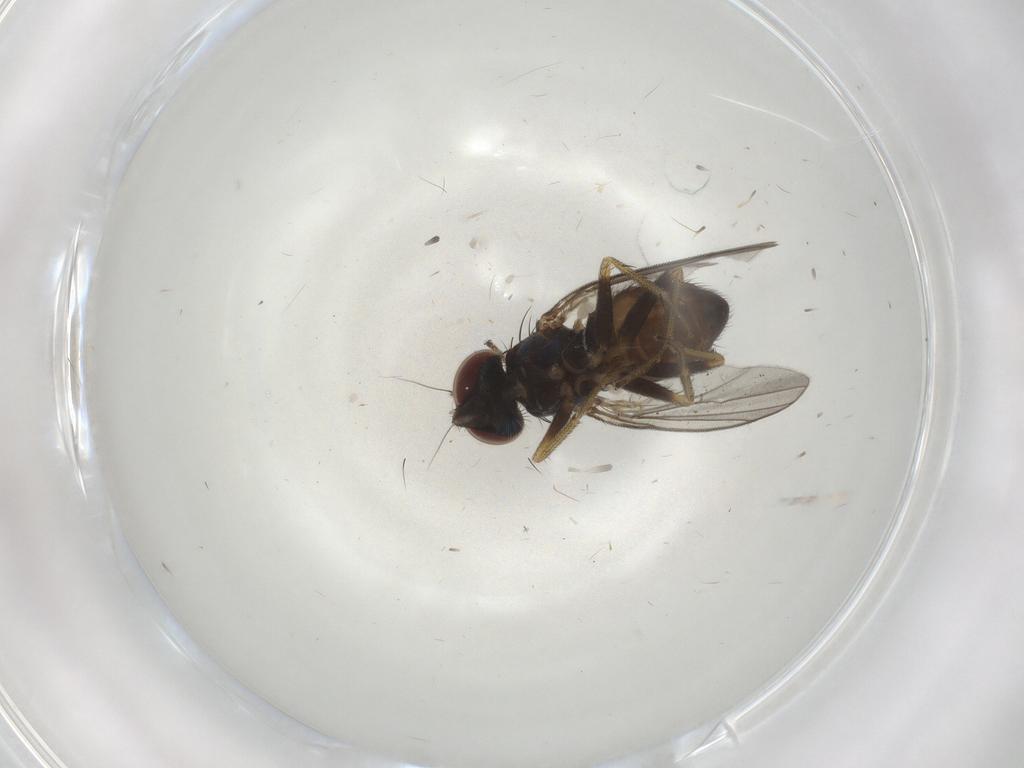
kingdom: Animalia
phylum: Arthropoda
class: Insecta
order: Diptera
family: Dolichopodidae
